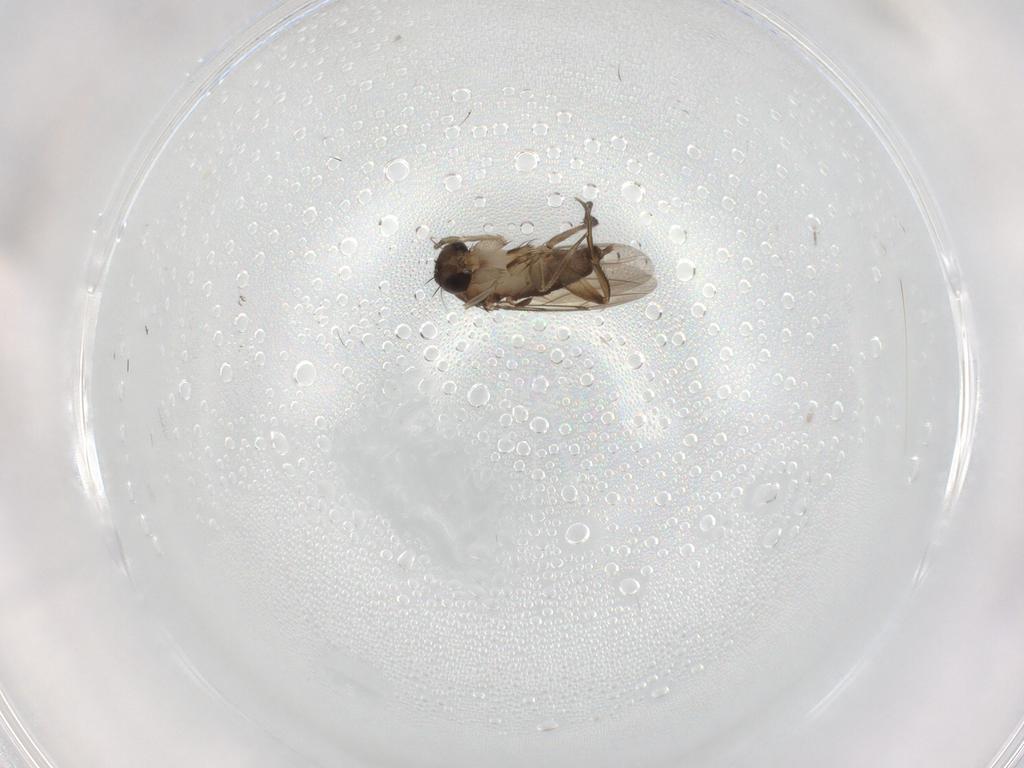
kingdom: Animalia
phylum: Arthropoda
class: Insecta
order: Diptera
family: Phoridae
